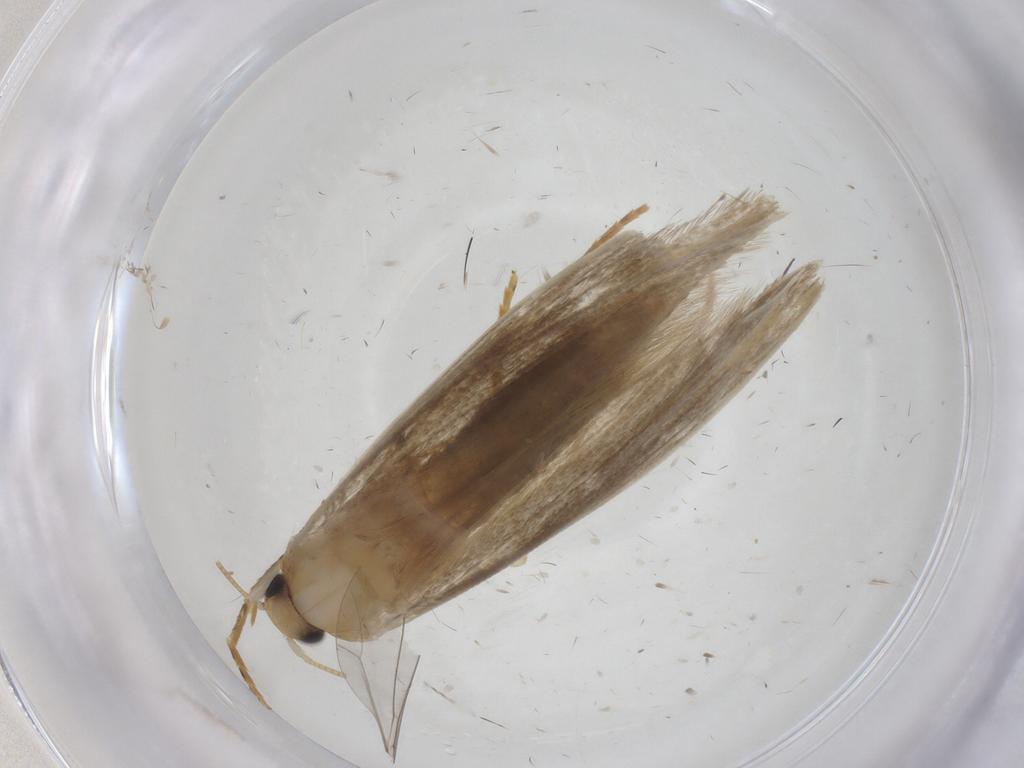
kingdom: Animalia
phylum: Arthropoda
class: Insecta
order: Lepidoptera
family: Tineidae
